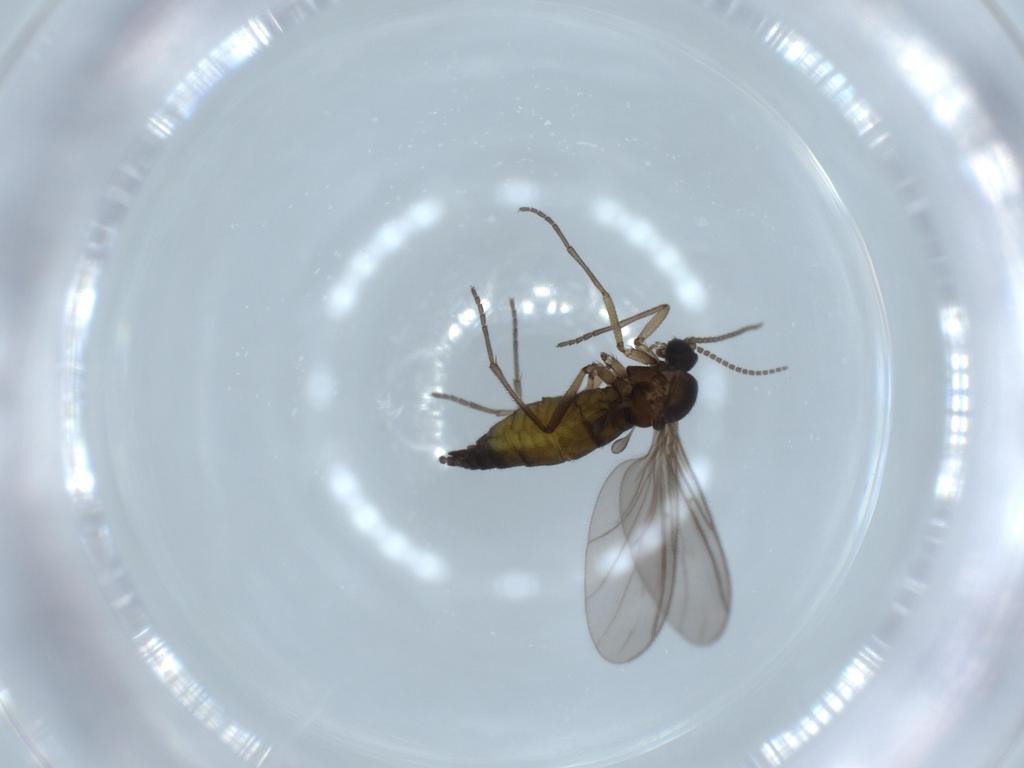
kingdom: Animalia
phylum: Arthropoda
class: Insecta
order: Diptera
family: Sciaridae
